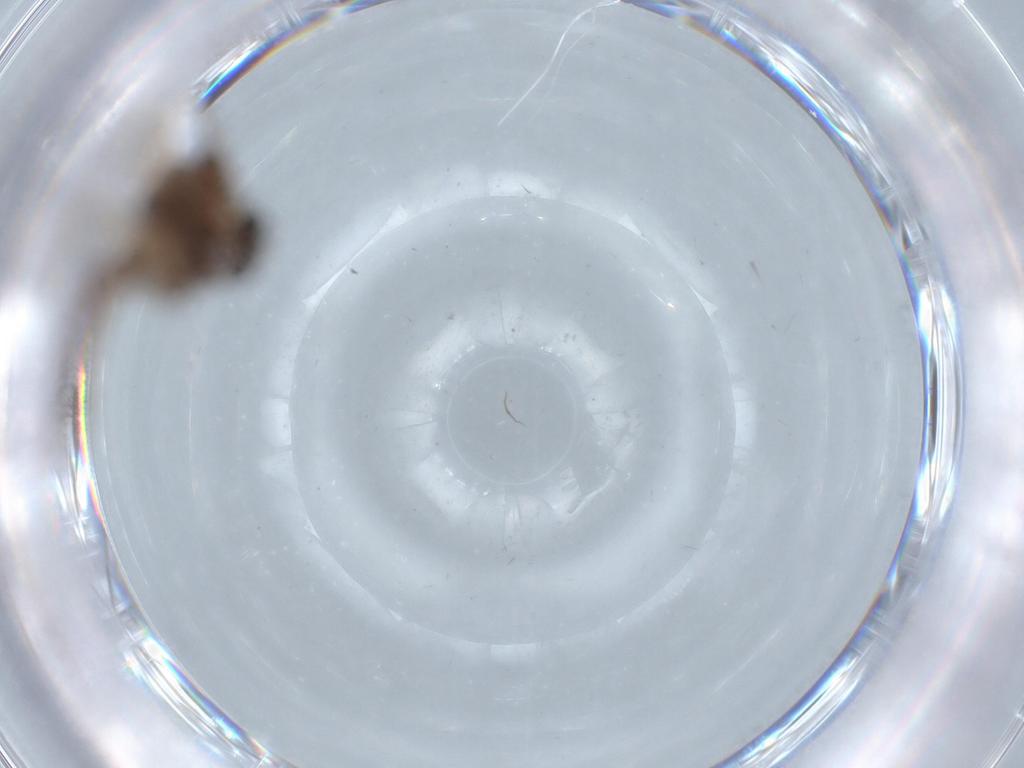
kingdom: Animalia
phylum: Arthropoda
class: Insecta
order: Diptera
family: Chironomidae
